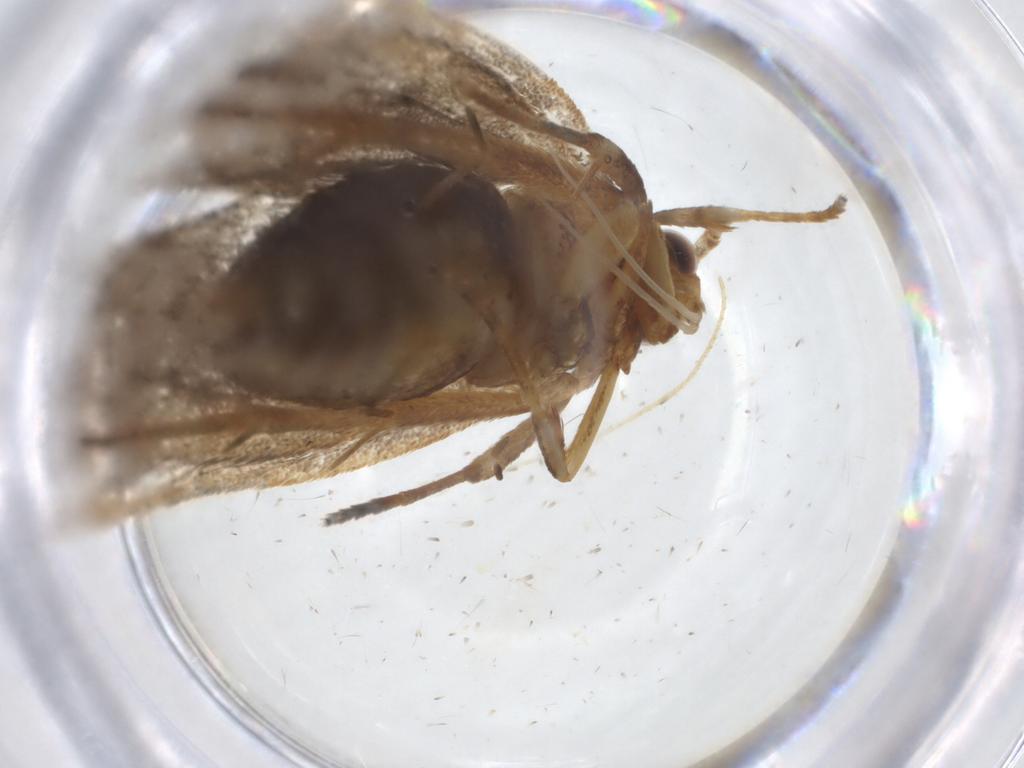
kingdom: Animalia
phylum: Arthropoda
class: Insecta
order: Lepidoptera
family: Lecithoceridae
